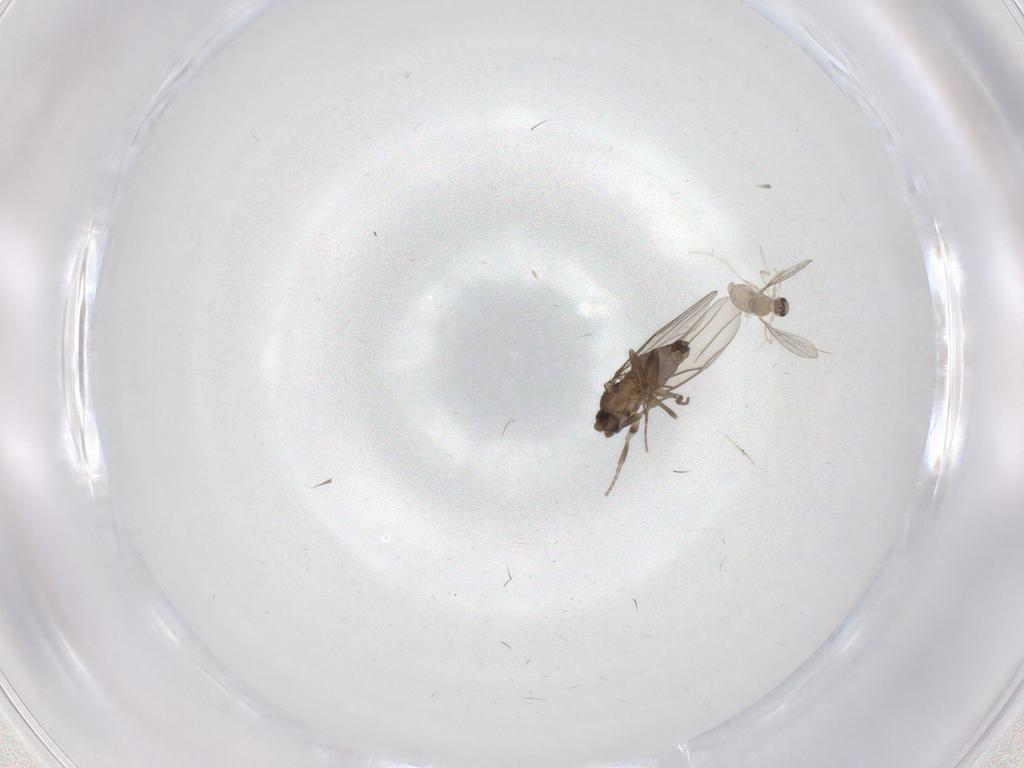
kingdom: Animalia
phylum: Arthropoda
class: Insecta
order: Diptera
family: Cecidomyiidae
